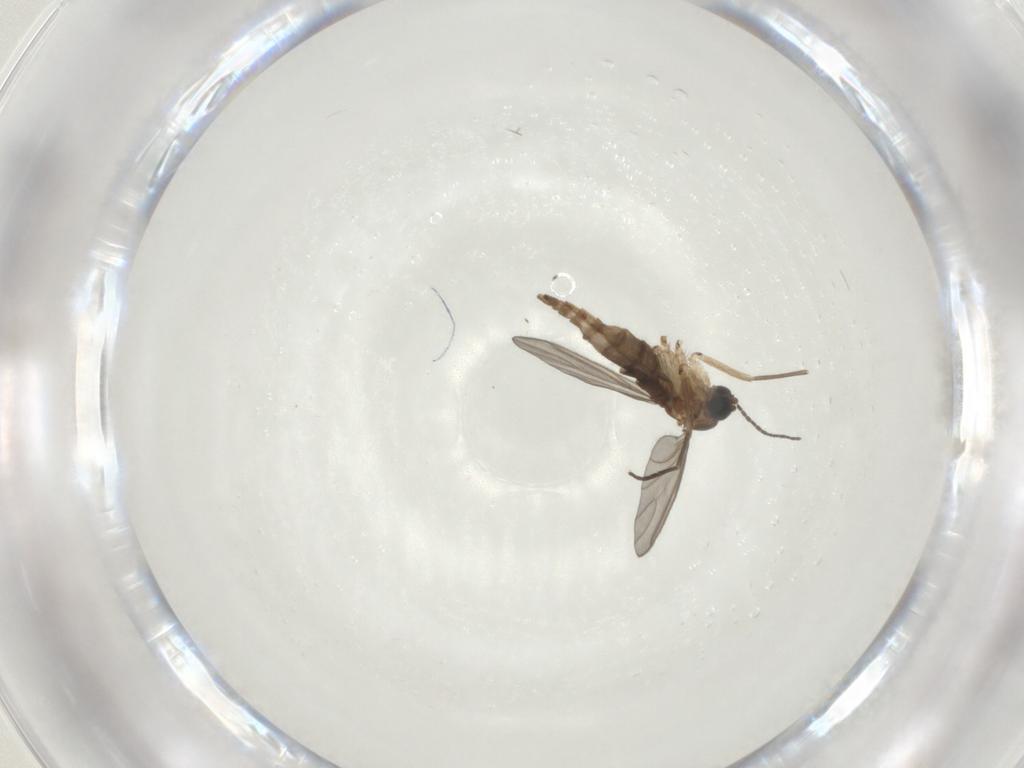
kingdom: Animalia
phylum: Arthropoda
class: Insecta
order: Diptera
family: Sciaridae
